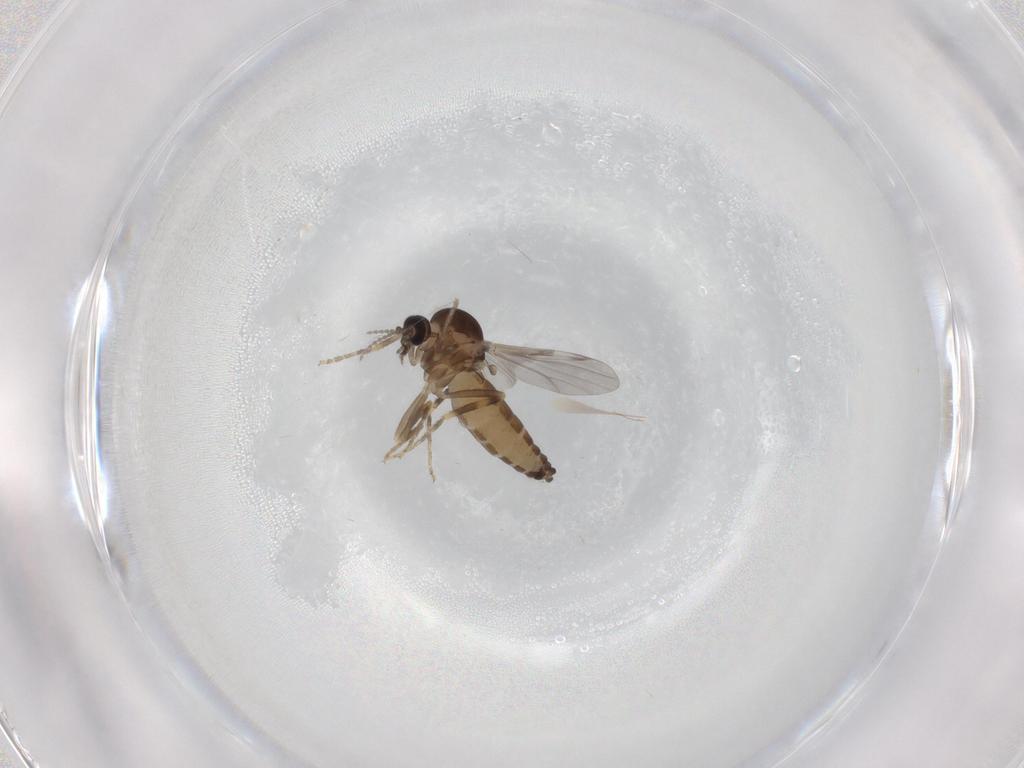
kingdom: Animalia
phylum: Arthropoda
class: Insecta
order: Diptera
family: Ceratopogonidae
